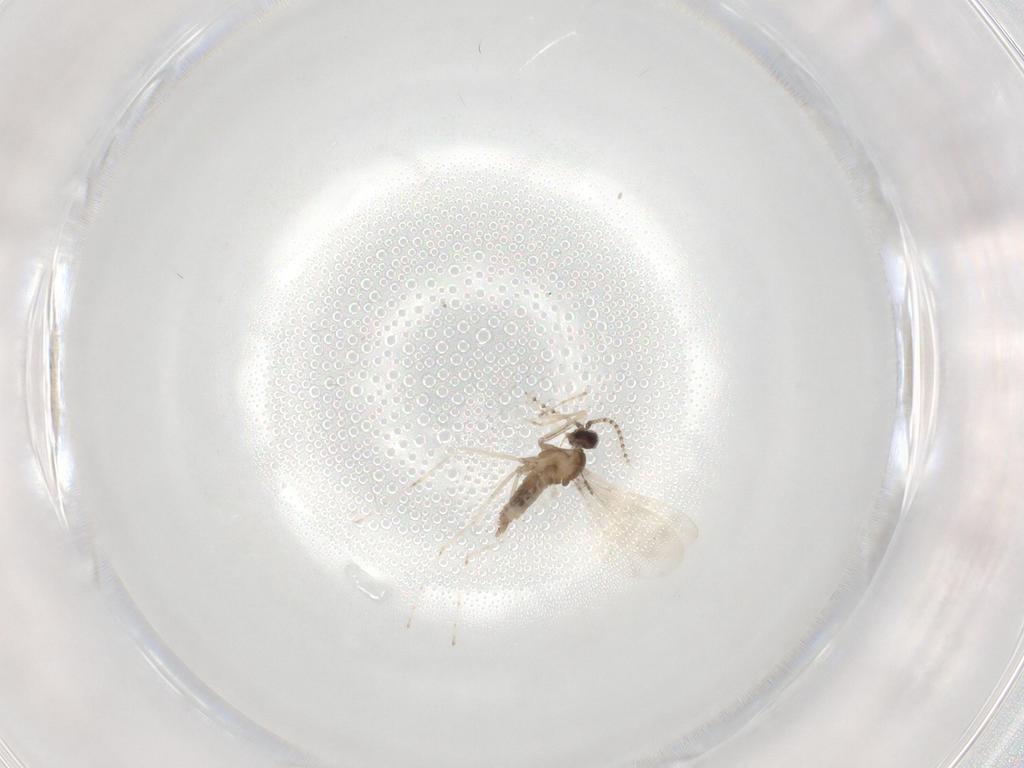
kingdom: Animalia
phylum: Arthropoda
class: Insecta
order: Diptera
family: Cecidomyiidae
